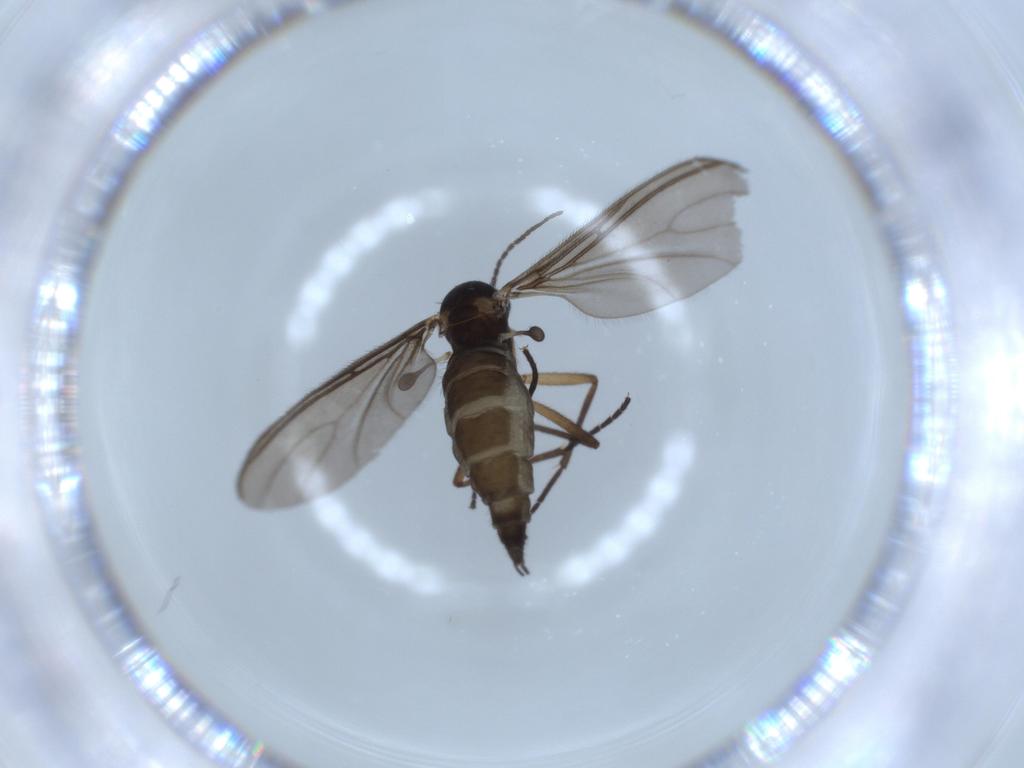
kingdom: Animalia
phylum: Arthropoda
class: Insecta
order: Diptera
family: Sciaridae
